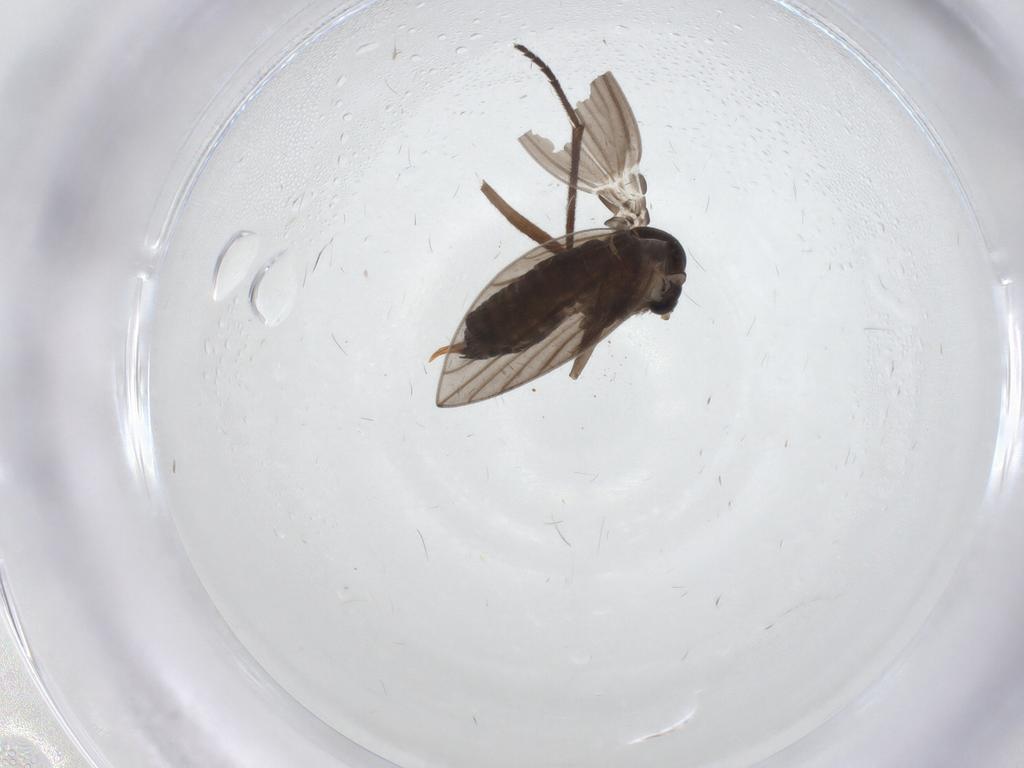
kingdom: Animalia
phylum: Arthropoda
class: Insecta
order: Diptera
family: Psychodidae
